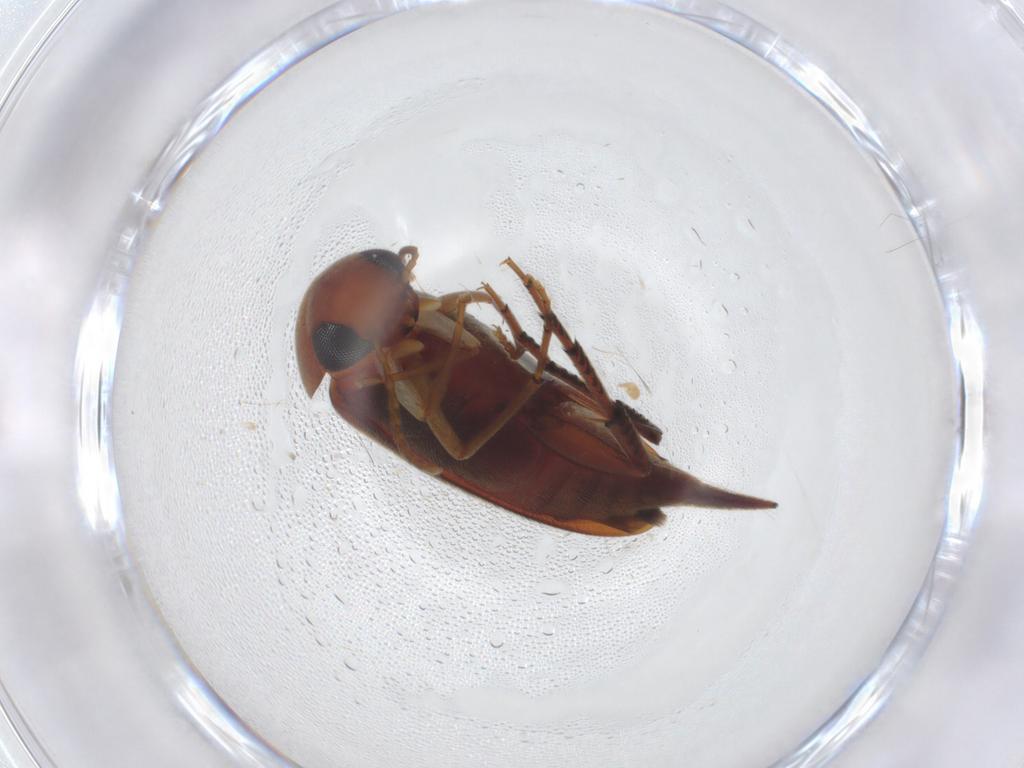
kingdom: Animalia
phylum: Arthropoda
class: Insecta
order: Coleoptera
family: Curculionidae
